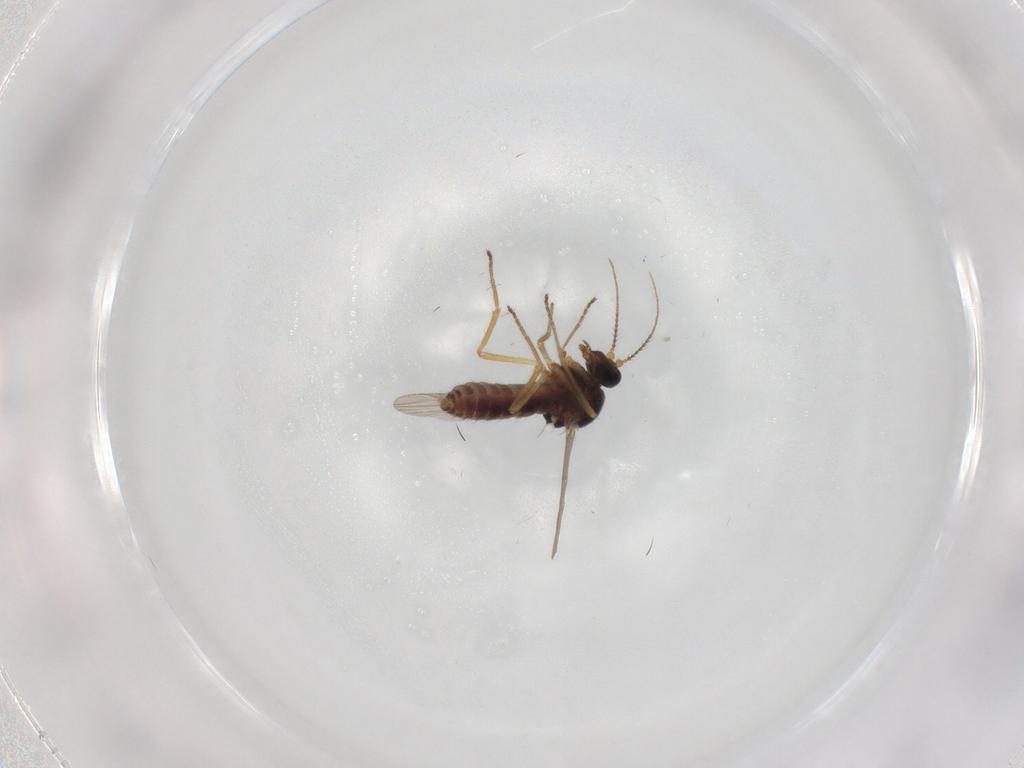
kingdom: Animalia
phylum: Arthropoda
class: Insecta
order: Diptera
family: Ceratopogonidae
